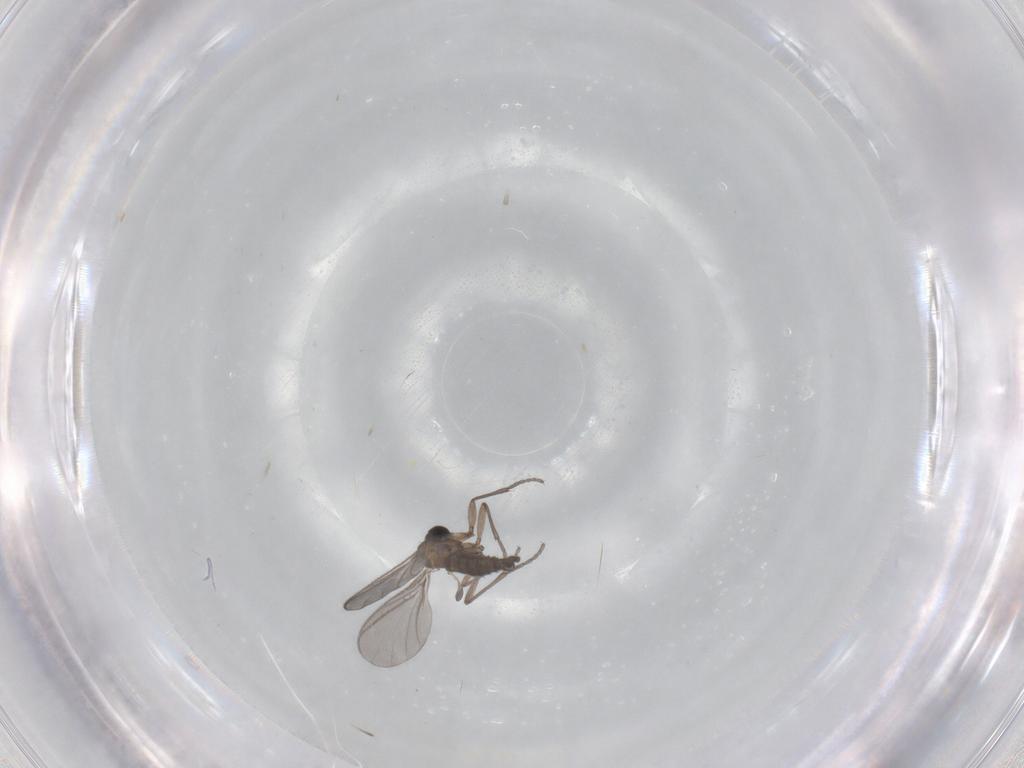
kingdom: Animalia
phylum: Arthropoda
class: Insecta
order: Diptera
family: Sciaridae
